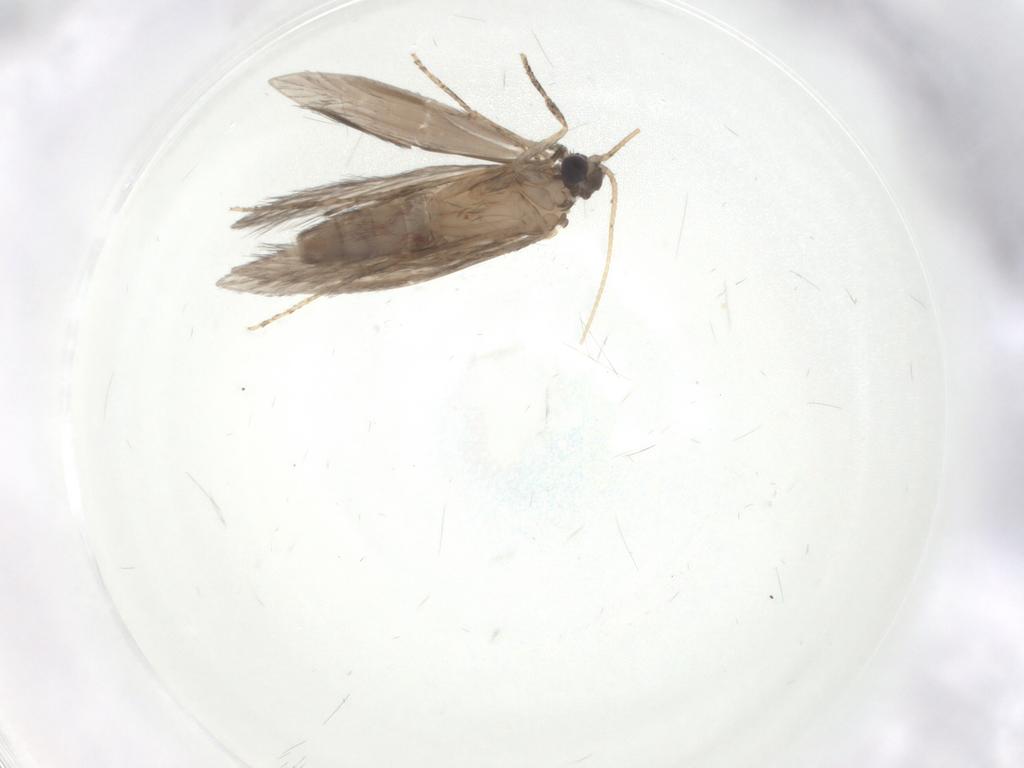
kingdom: Animalia
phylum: Arthropoda
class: Insecta
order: Trichoptera
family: Hydroptilidae
